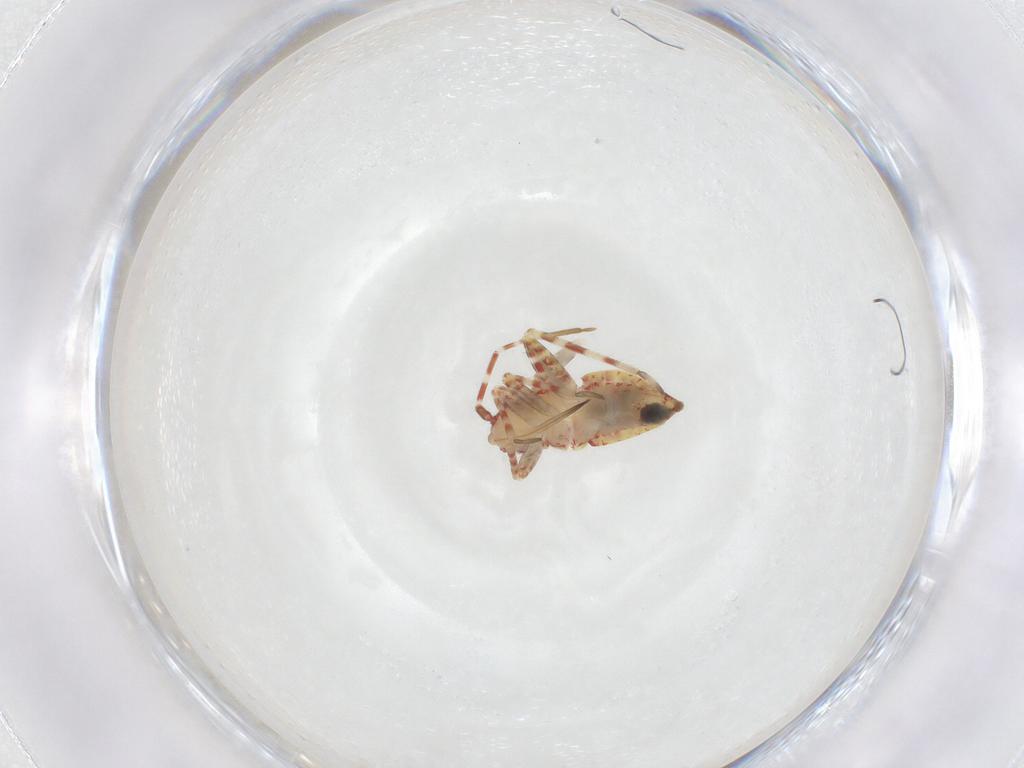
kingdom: Animalia
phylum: Arthropoda
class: Insecta
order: Hemiptera
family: Miridae
